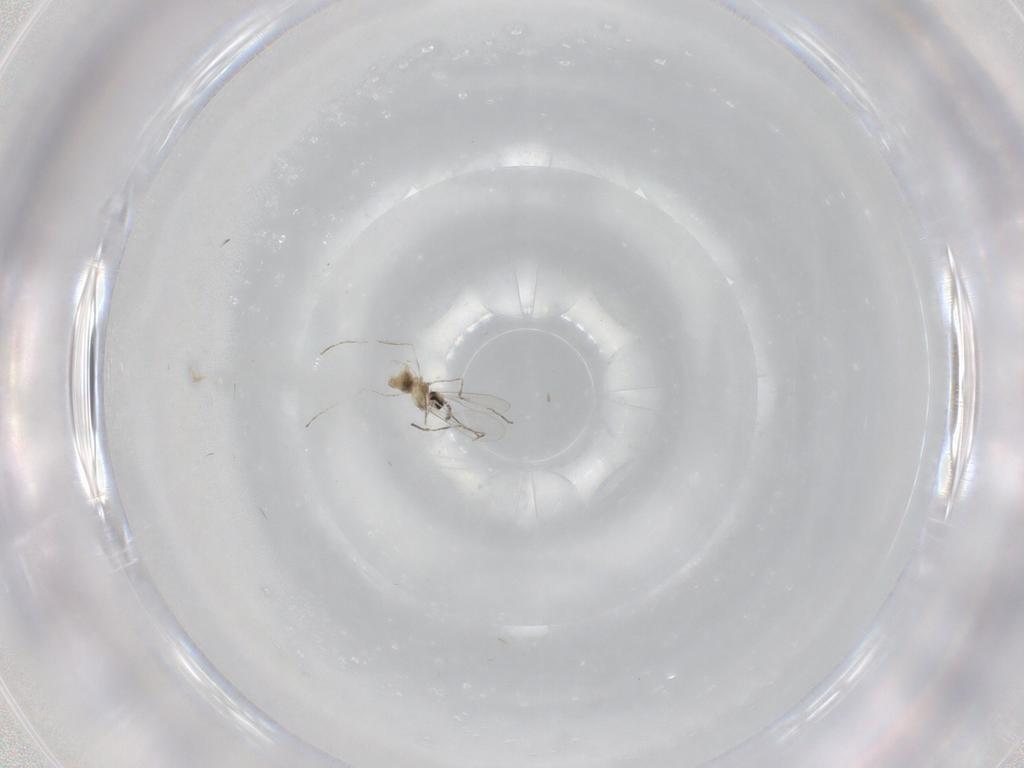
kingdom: Animalia
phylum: Arthropoda
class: Insecta
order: Diptera
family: Cecidomyiidae
